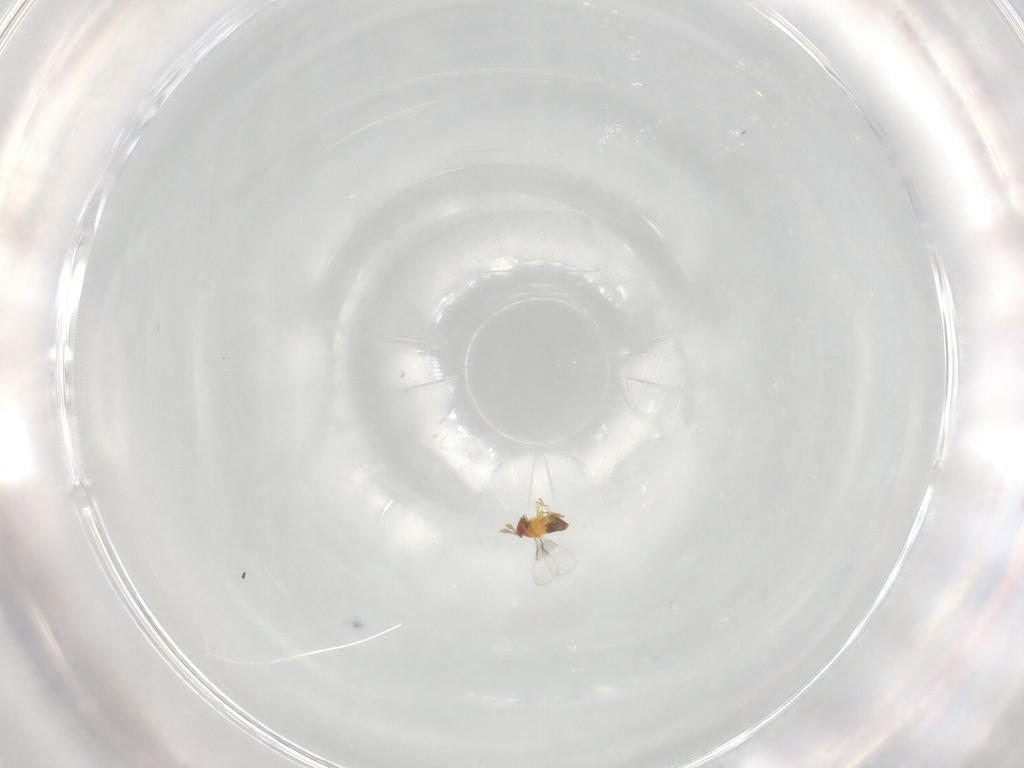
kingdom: Animalia
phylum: Arthropoda
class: Insecta
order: Hymenoptera
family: Trichogrammatidae
